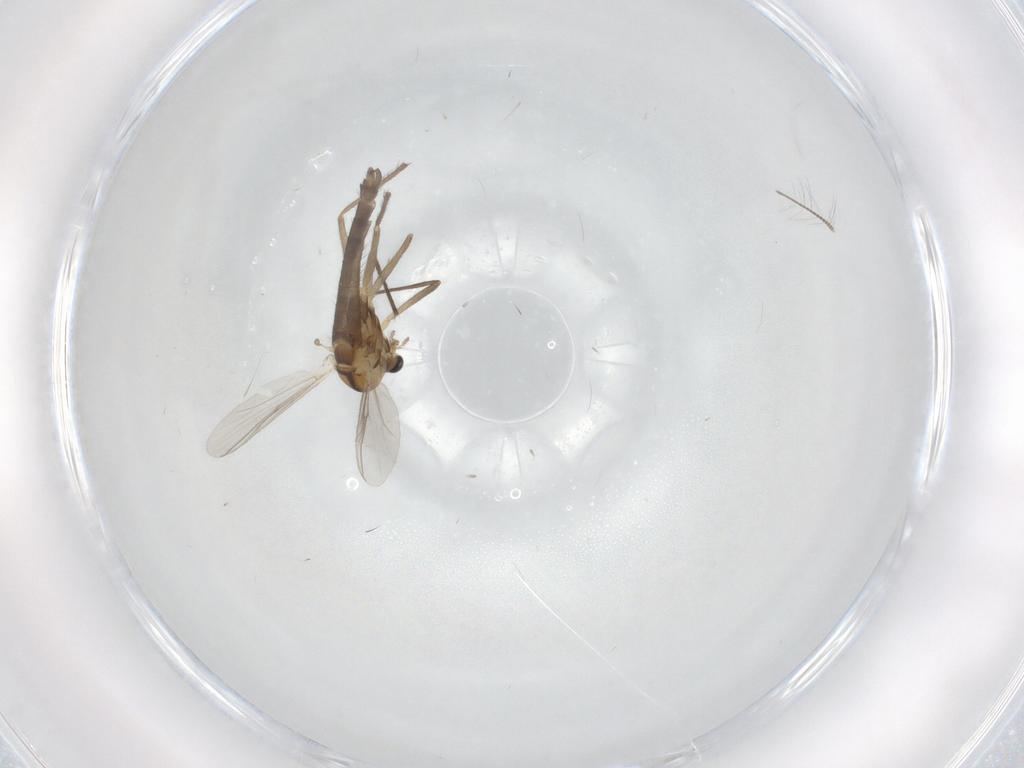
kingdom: Animalia
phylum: Arthropoda
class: Insecta
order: Diptera
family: Chironomidae
